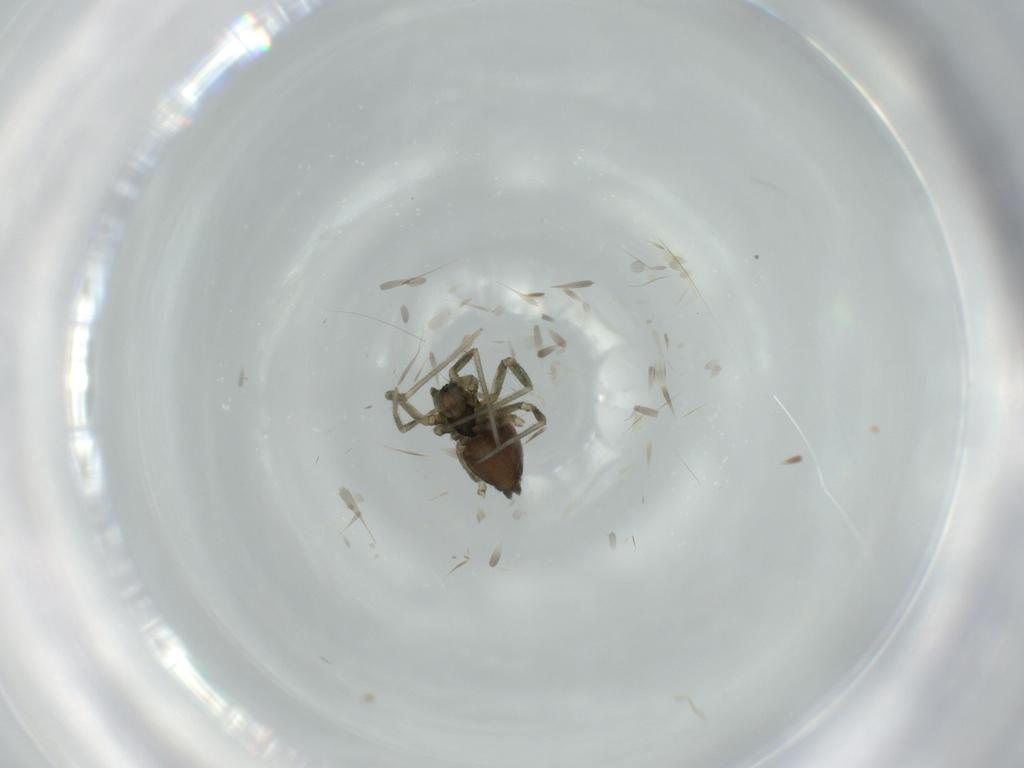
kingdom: Animalia
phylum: Arthropoda
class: Arachnida
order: Araneae
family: Linyphiidae
